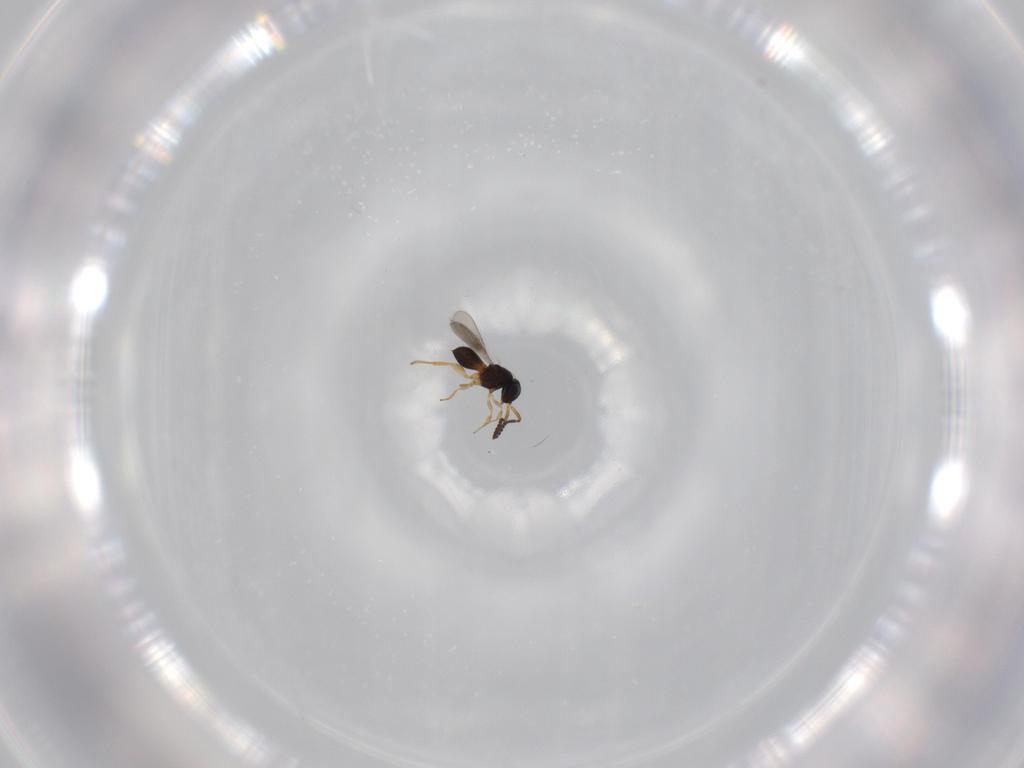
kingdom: Animalia
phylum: Arthropoda
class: Insecta
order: Hymenoptera
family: Scelionidae
